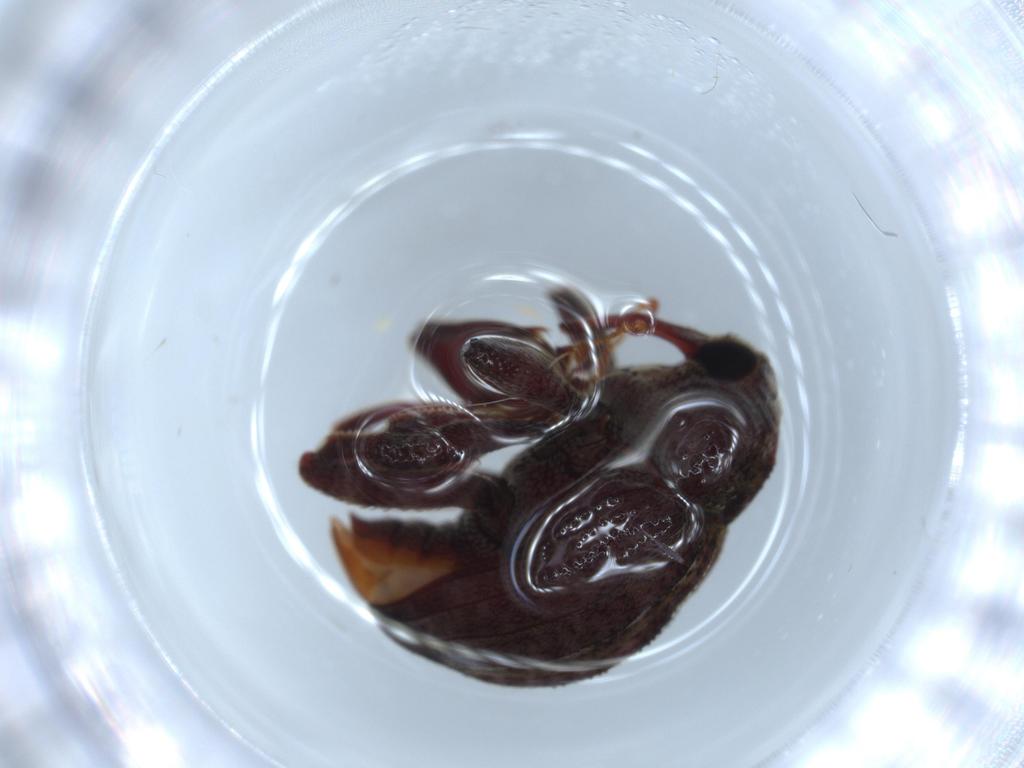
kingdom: Animalia
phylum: Arthropoda
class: Insecta
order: Coleoptera
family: Curculionidae
